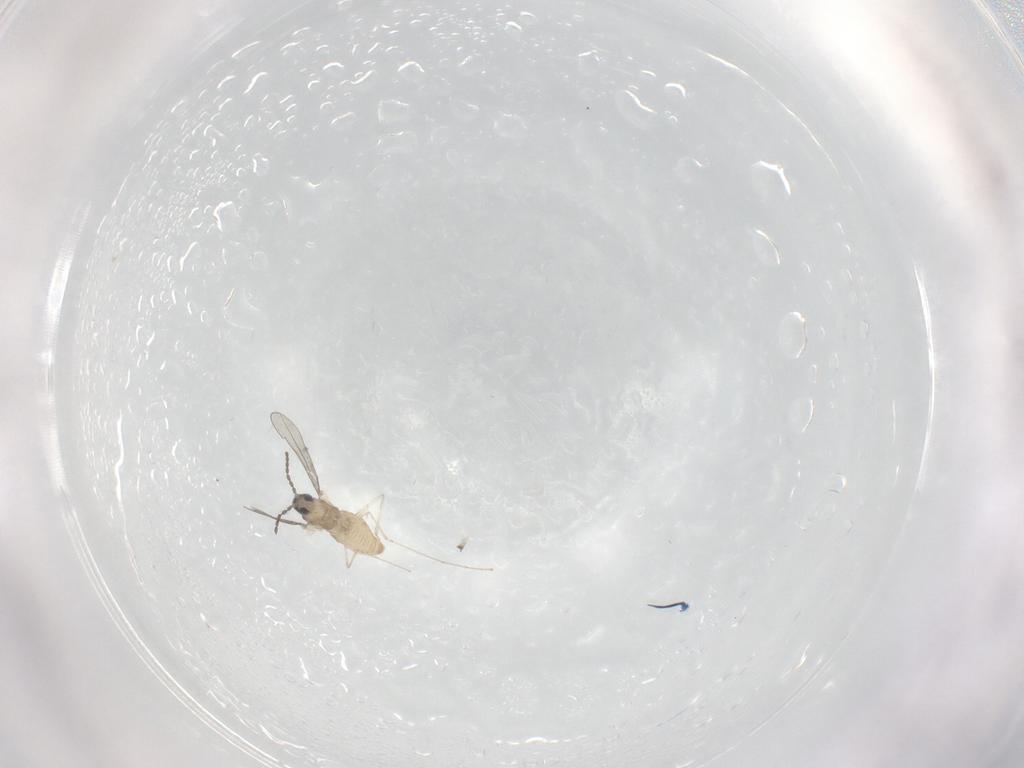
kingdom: Animalia
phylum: Arthropoda
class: Insecta
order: Diptera
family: Cecidomyiidae
